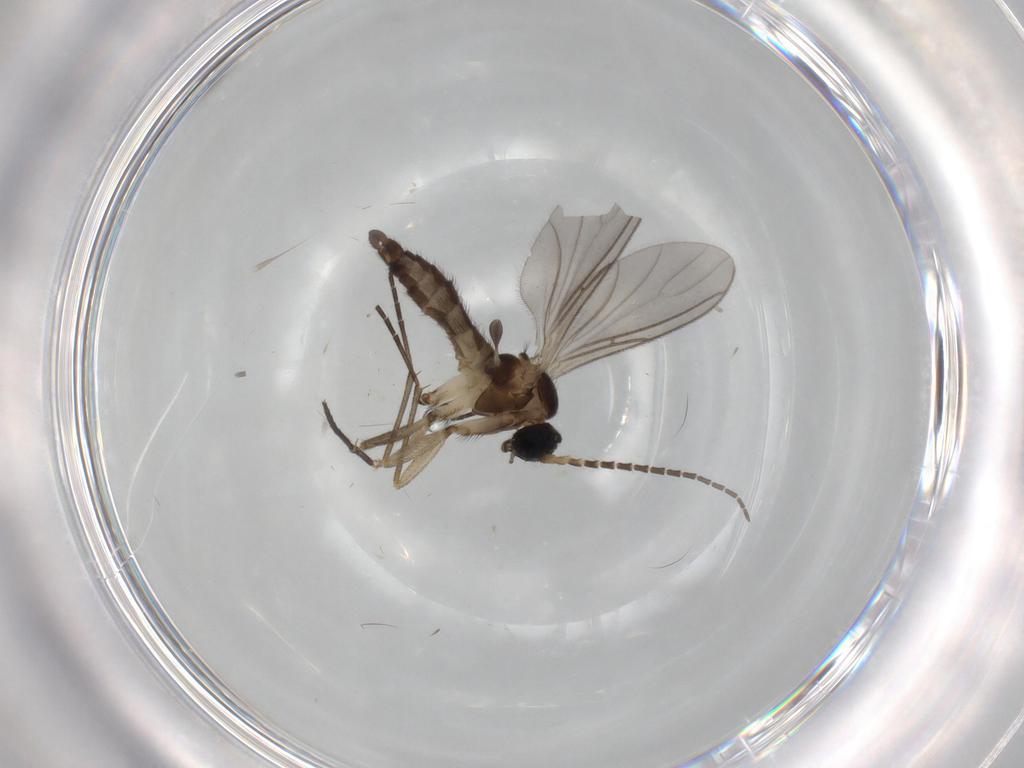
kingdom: Animalia
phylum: Arthropoda
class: Insecta
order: Diptera
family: Sciaridae
